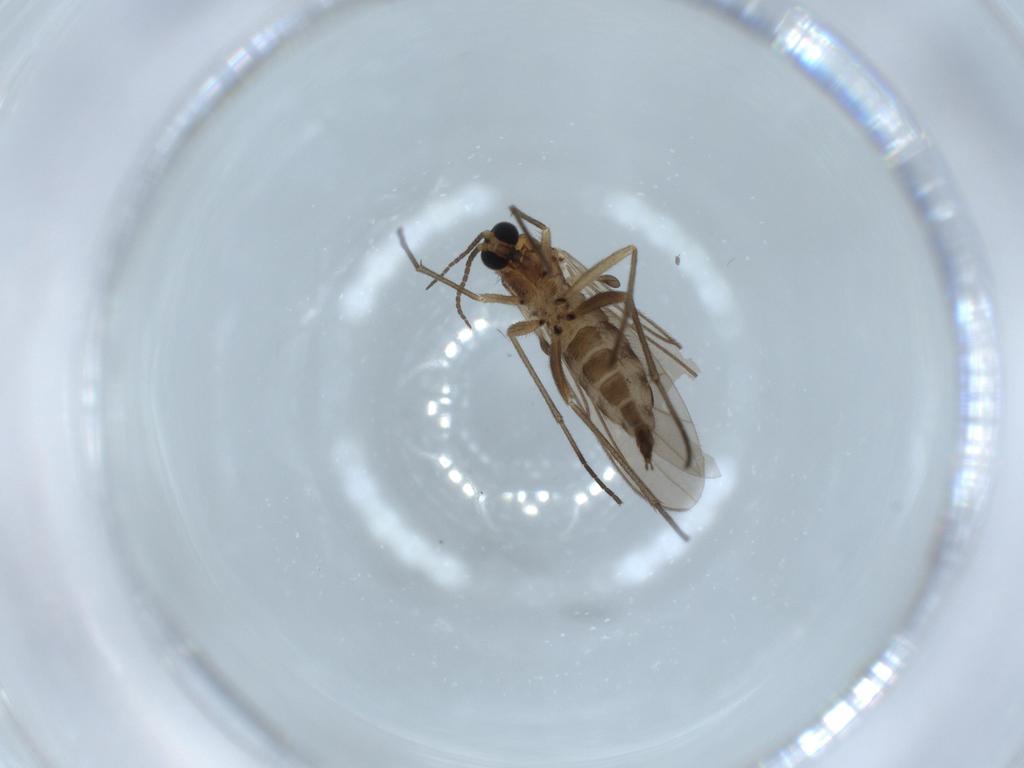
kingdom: Animalia
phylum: Arthropoda
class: Insecta
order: Diptera
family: Sciaridae
